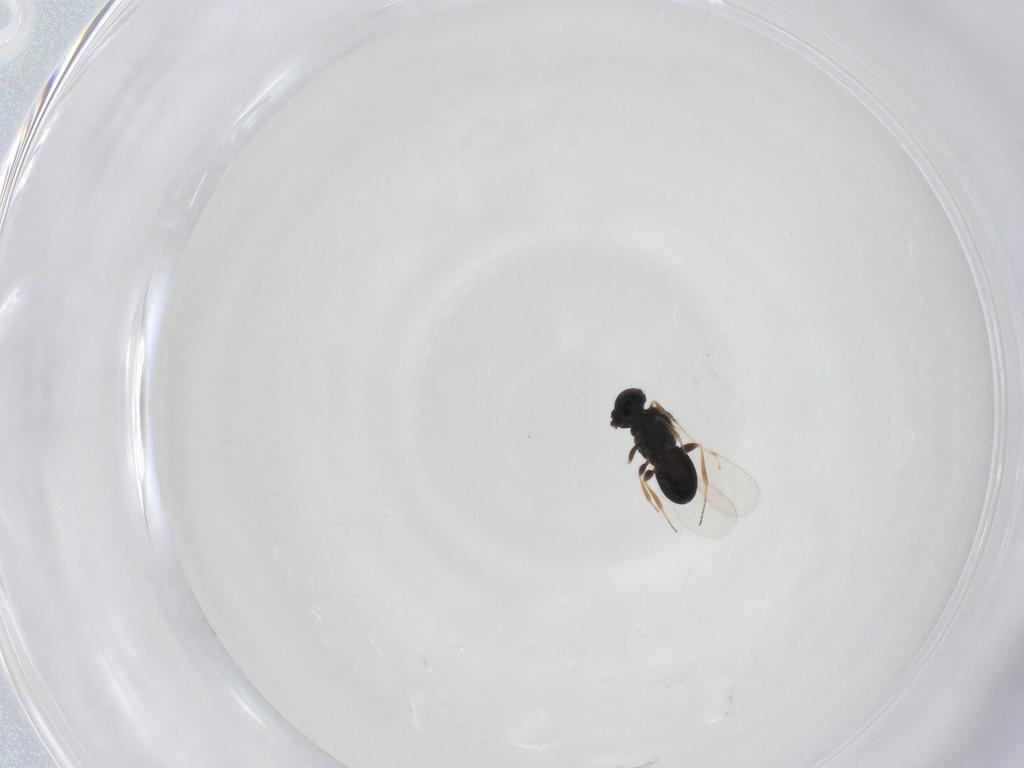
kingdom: Animalia
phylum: Arthropoda
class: Insecta
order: Hymenoptera
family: Scelionidae
